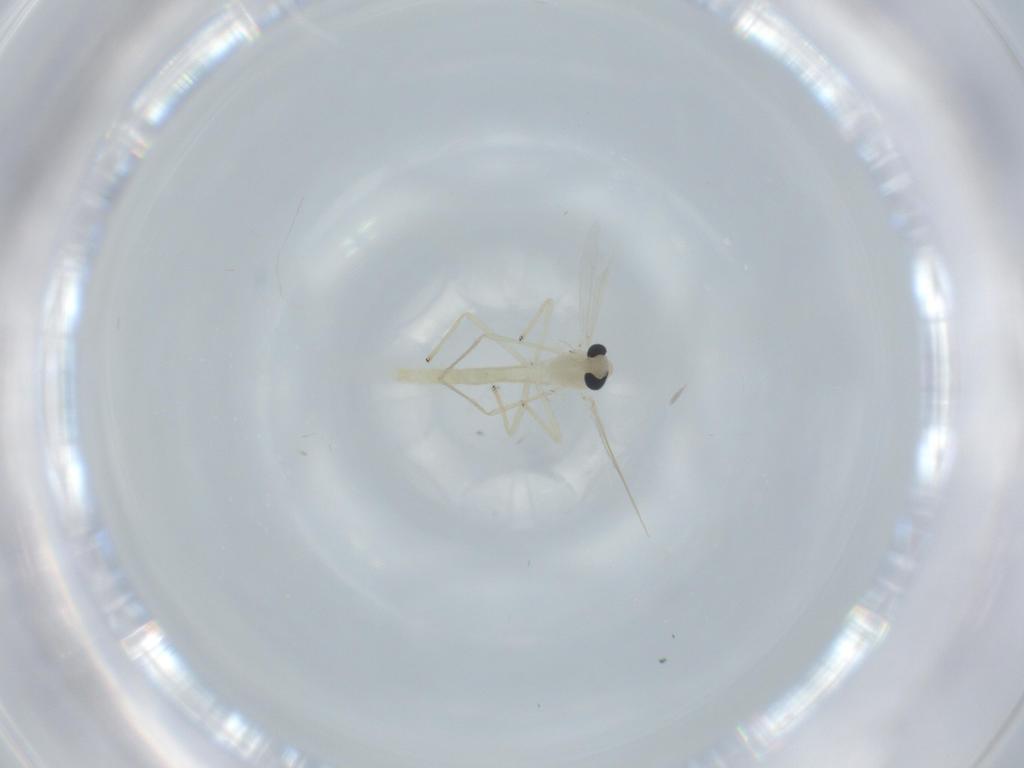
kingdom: Animalia
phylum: Arthropoda
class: Insecta
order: Diptera
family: Chironomidae
